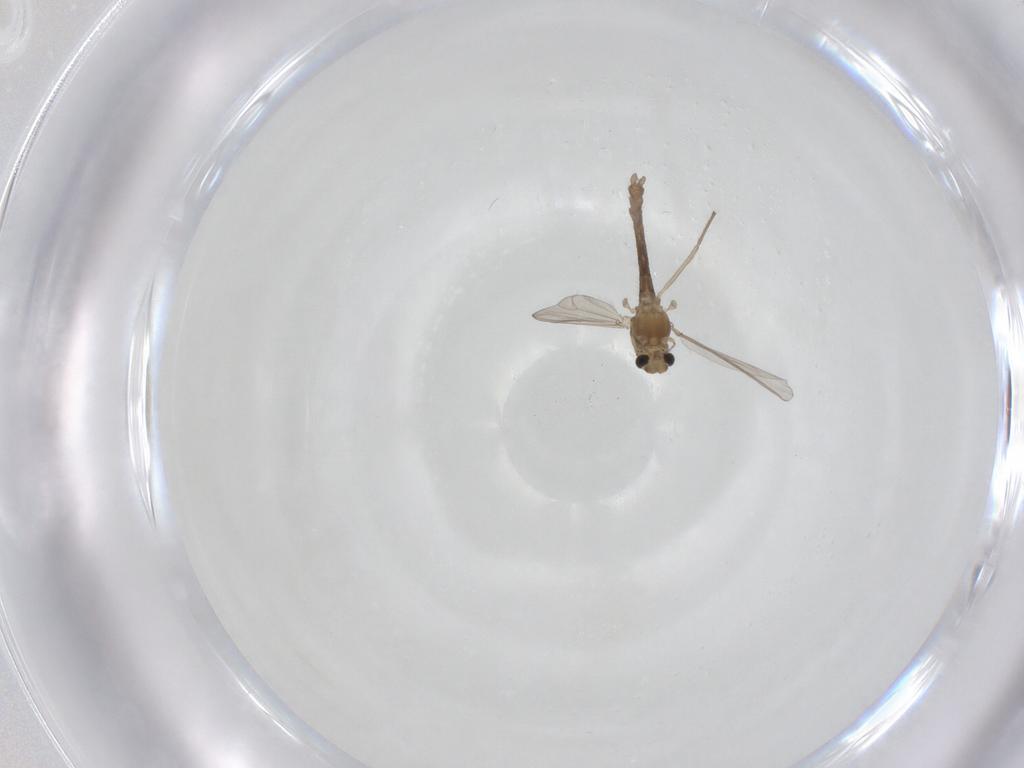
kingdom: Animalia
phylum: Arthropoda
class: Insecta
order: Diptera
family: Chironomidae
